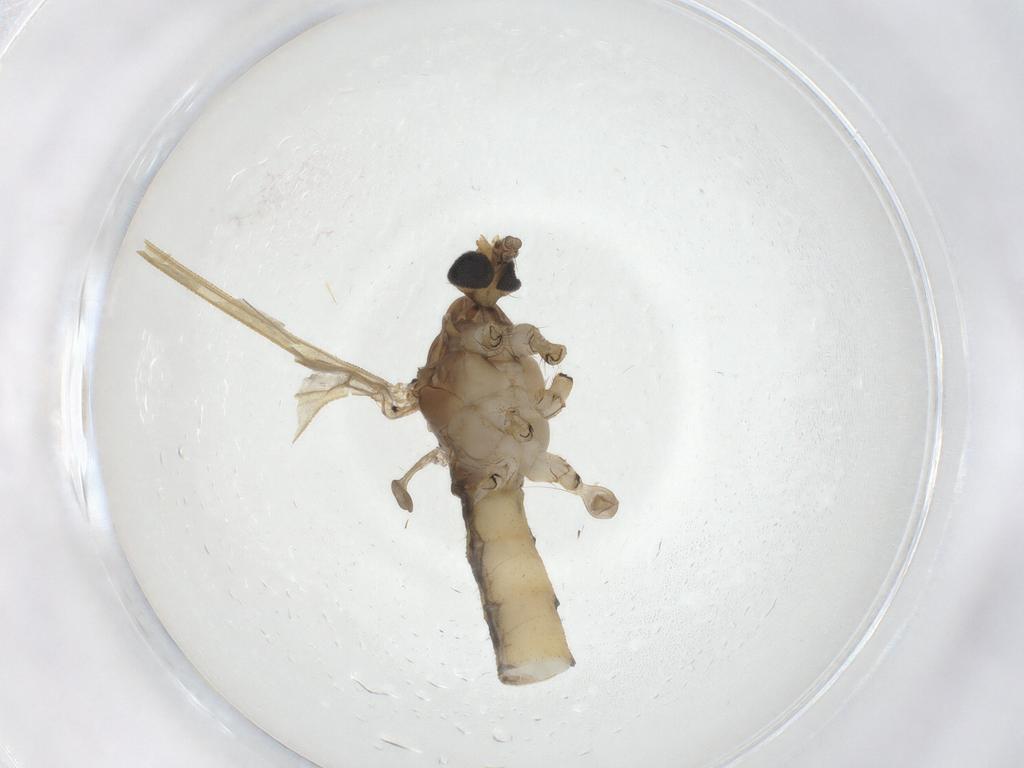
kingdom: Animalia
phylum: Arthropoda
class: Insecta
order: Diptera
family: Limoniidae
